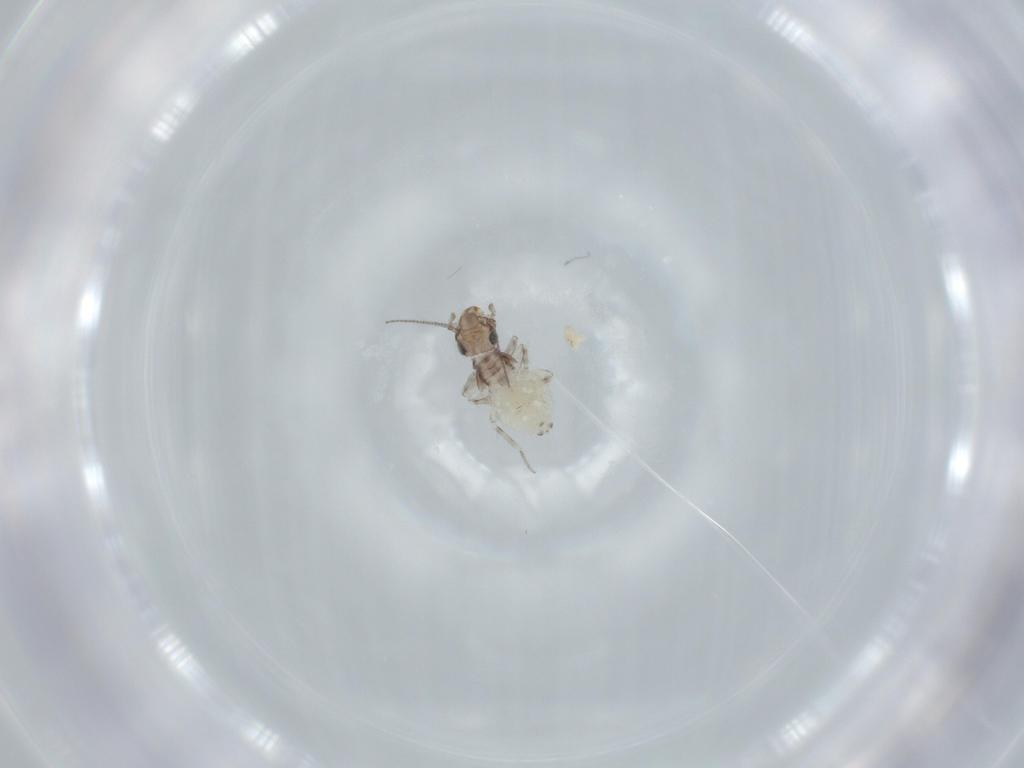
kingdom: Animalia
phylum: Arthropoda
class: Insecta
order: Psocodea
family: Lepidopsocidae
